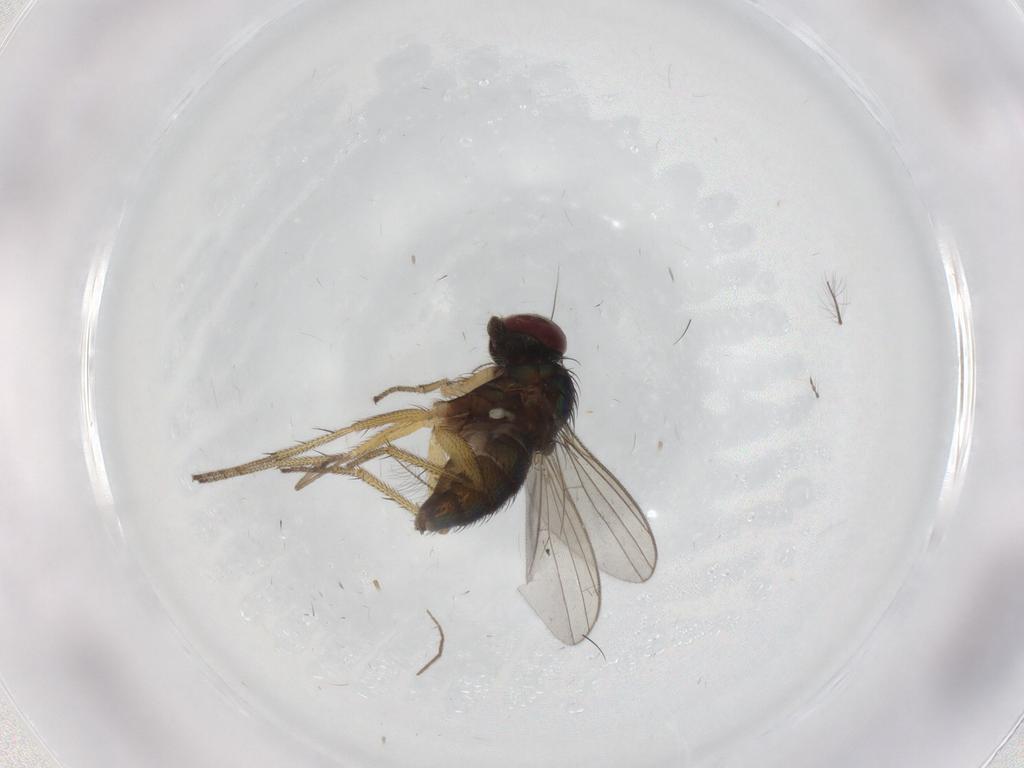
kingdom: Animalia
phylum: Arthropoda
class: Insecta
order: Diptera
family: Chironomidae
